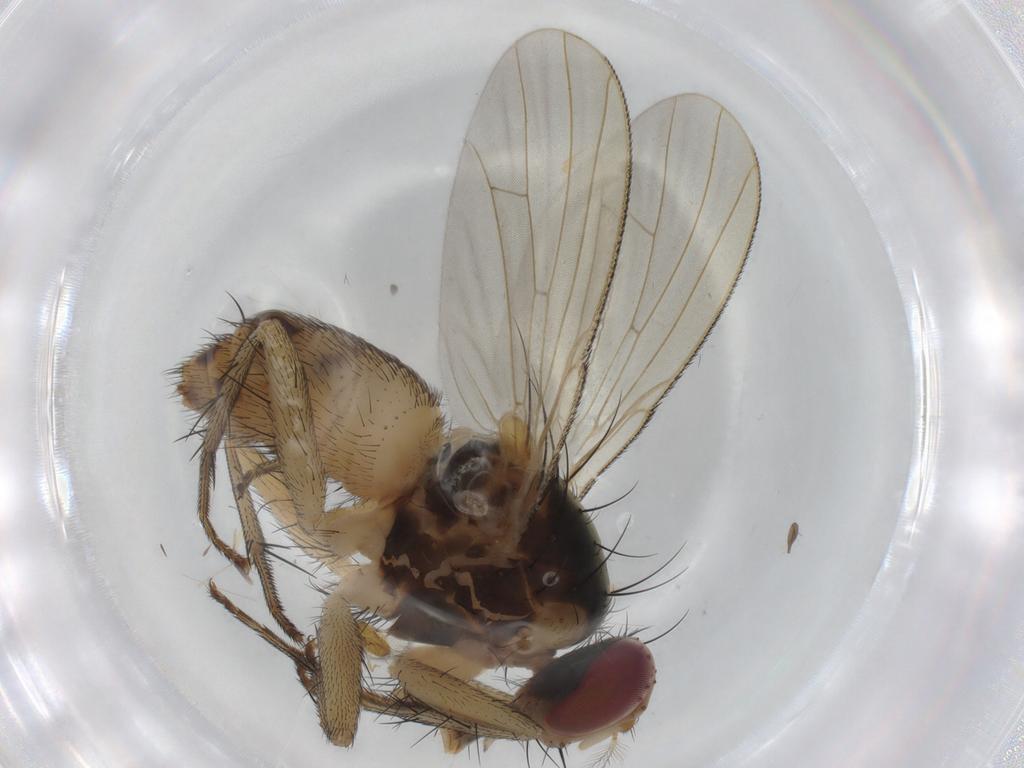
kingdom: Animalia
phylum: Arthropoda
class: Insecta
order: Diptera
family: Muscidae
